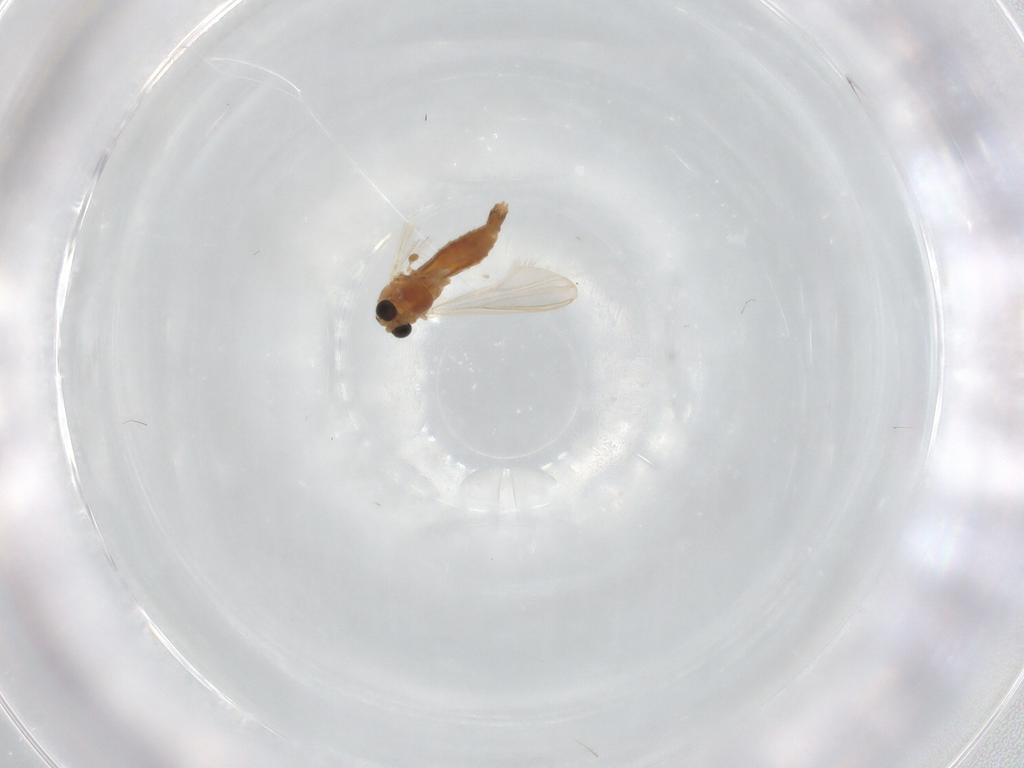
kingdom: Animalia
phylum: Arthropoda
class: Insecta
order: Diptera
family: Chironomidae
